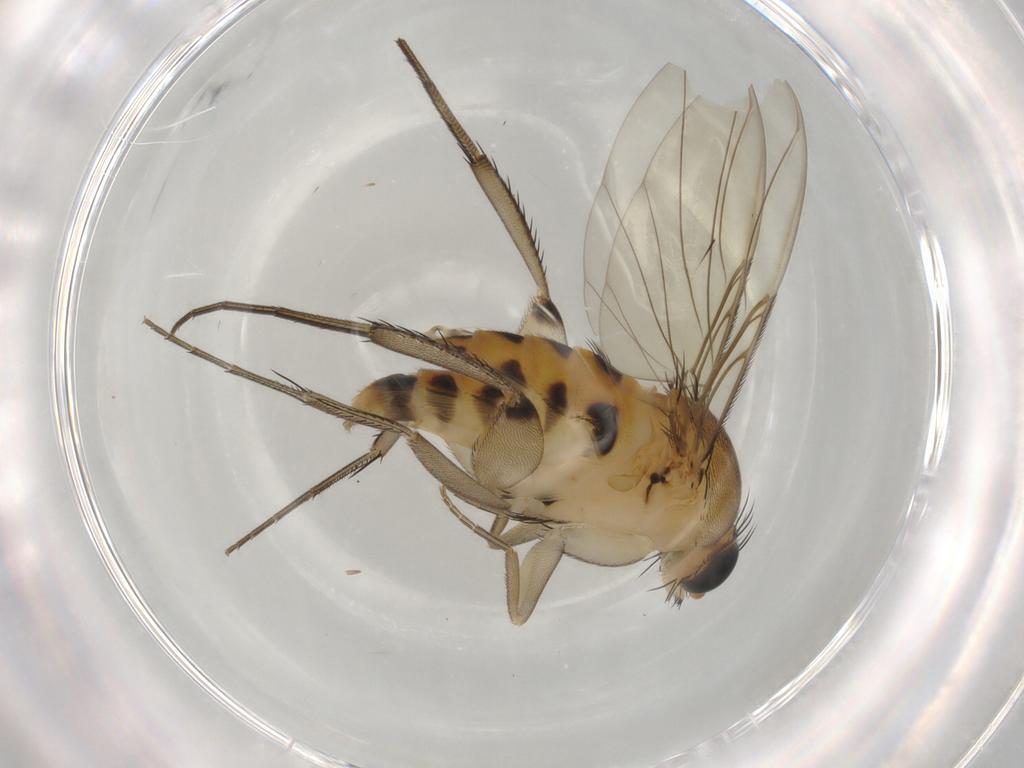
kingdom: Animalia
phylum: Arthropoda
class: Insecta
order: Diptera
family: Phoridae
